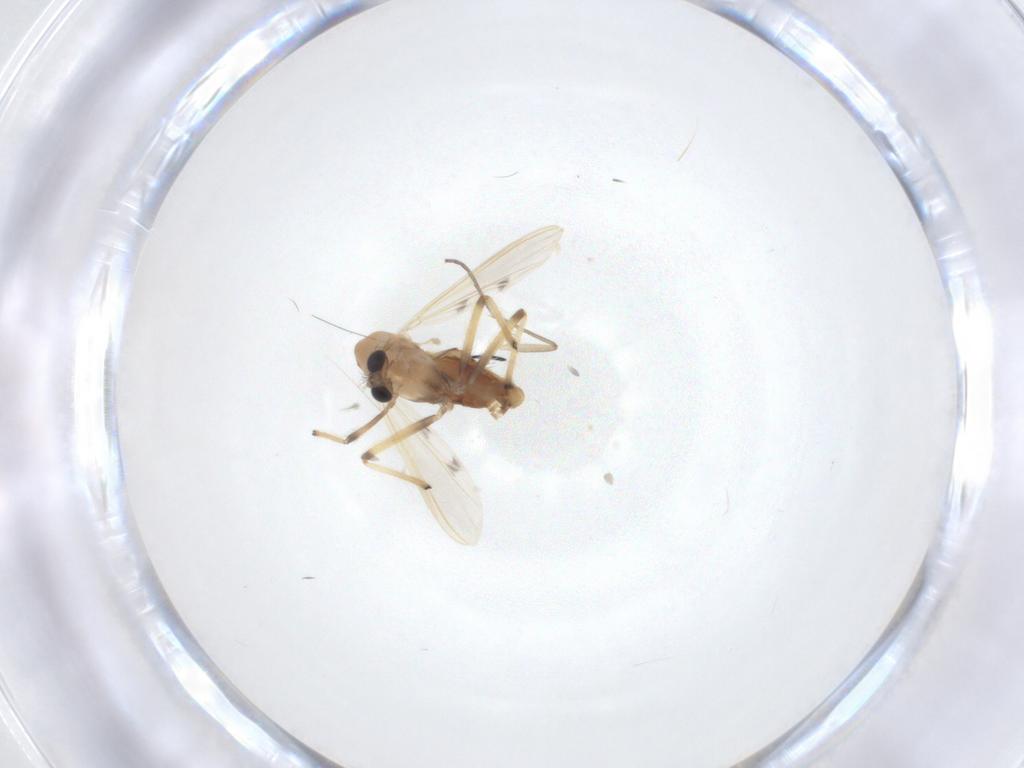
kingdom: Animalia
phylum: Arthropoda
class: Insecta
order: Diptera
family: Chironomidae
